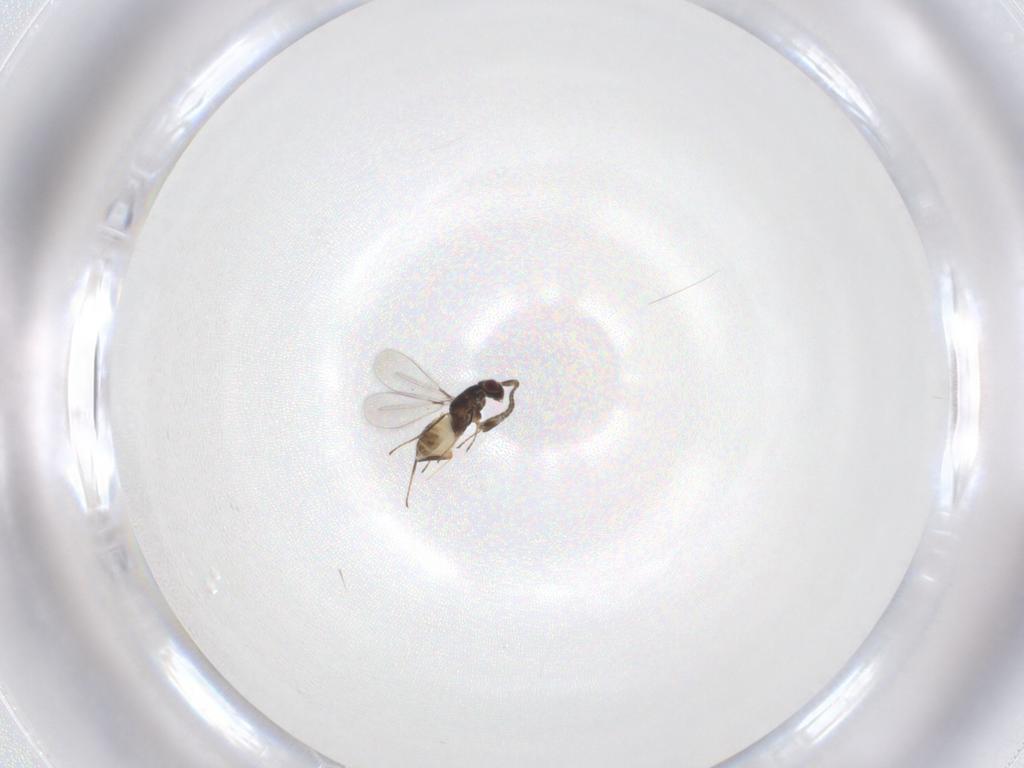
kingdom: Animalia
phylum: Arthropoda
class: Insecta
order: Hymenoptera
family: Mymaridae
